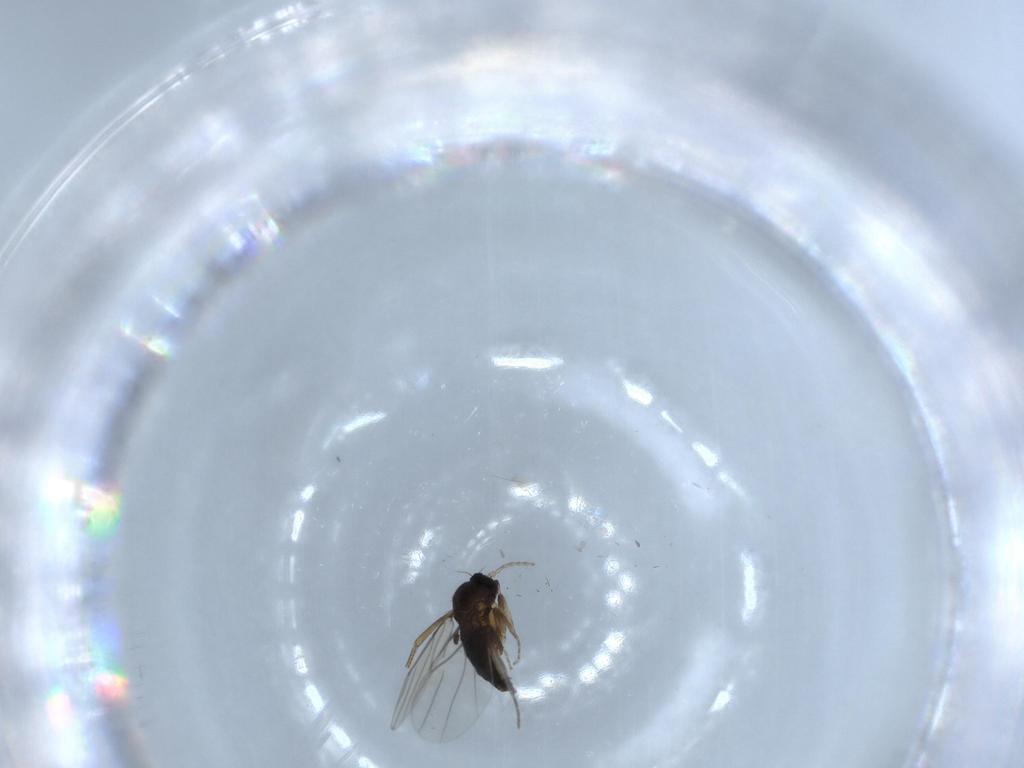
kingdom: Animalia
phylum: Arthropoda
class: Insecta
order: Diptera
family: Phoridae
